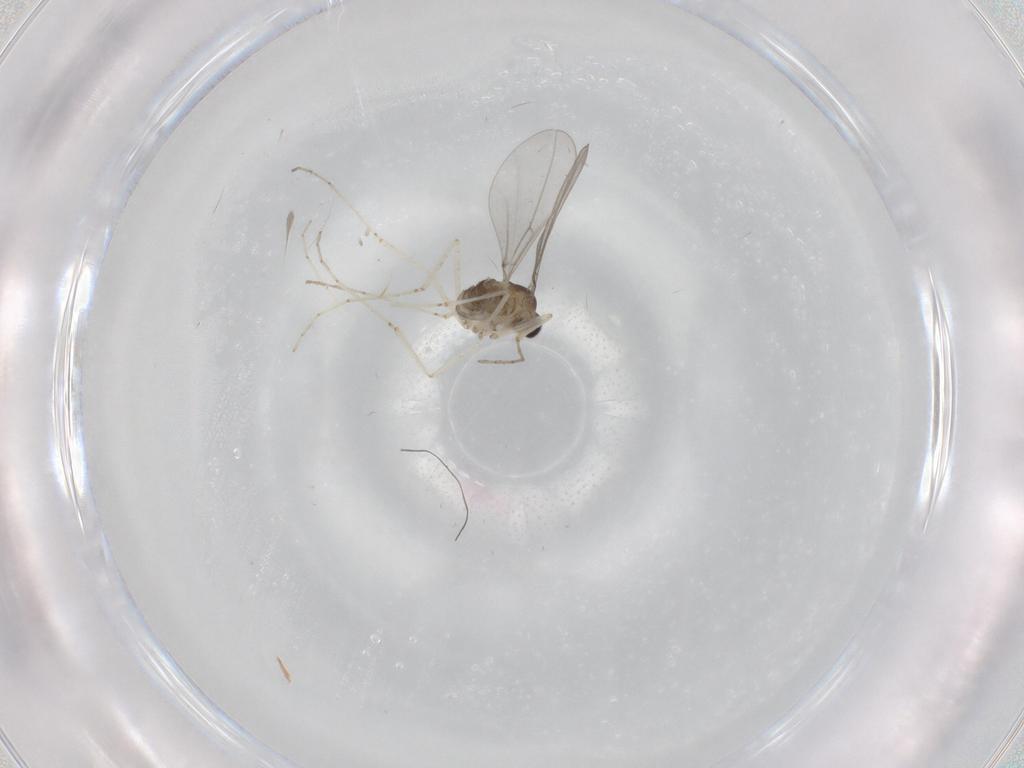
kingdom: Animalia
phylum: Arthropoda
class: Insecta
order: Diptera
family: Cecidomyiidae
